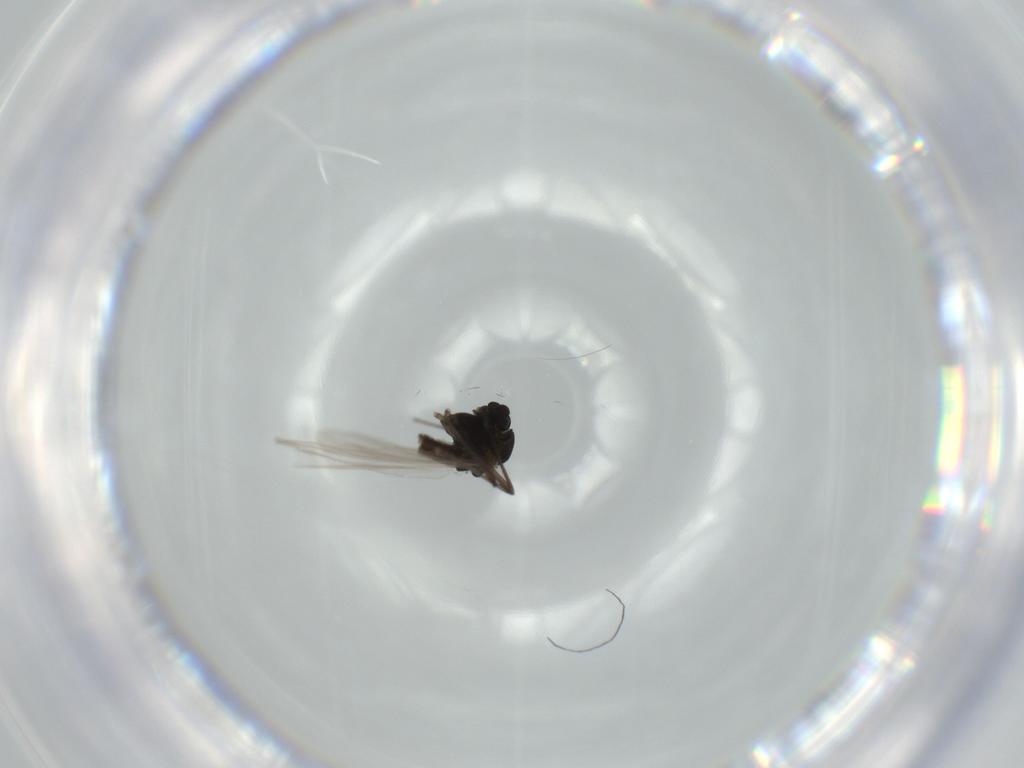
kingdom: Animalia
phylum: Arthropoda
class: Insecta
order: Diptera
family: Chironomidae
